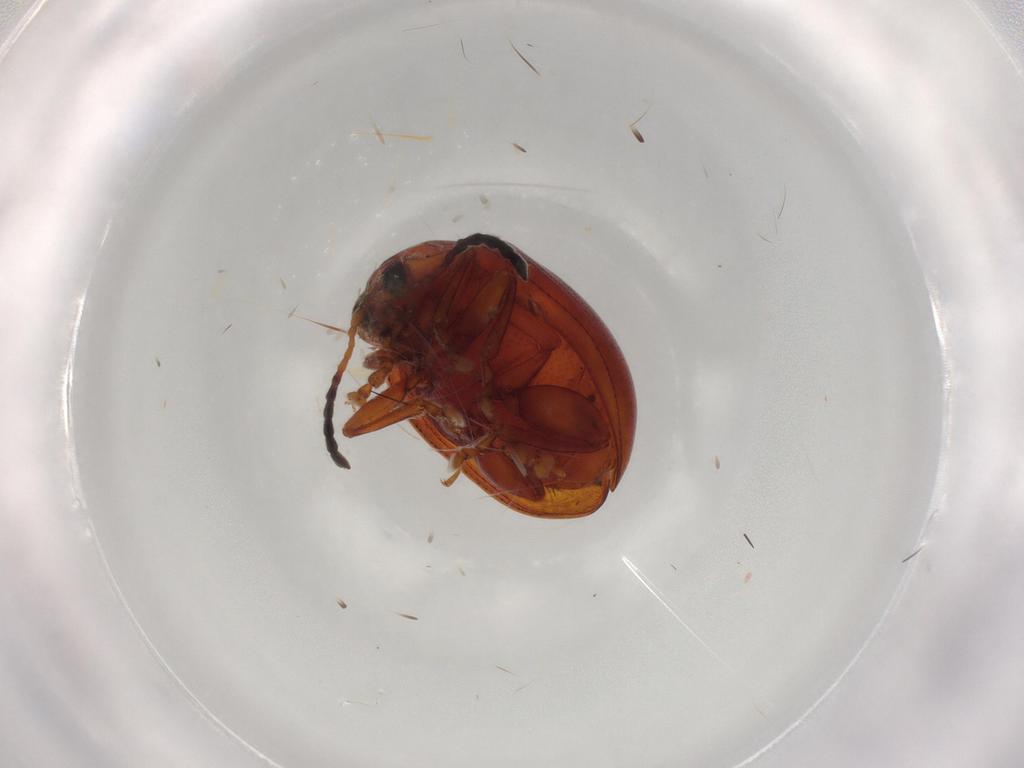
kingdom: Animalia
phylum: Arthropoda
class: Insecta
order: Coleoptera
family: Chrysomelidae
